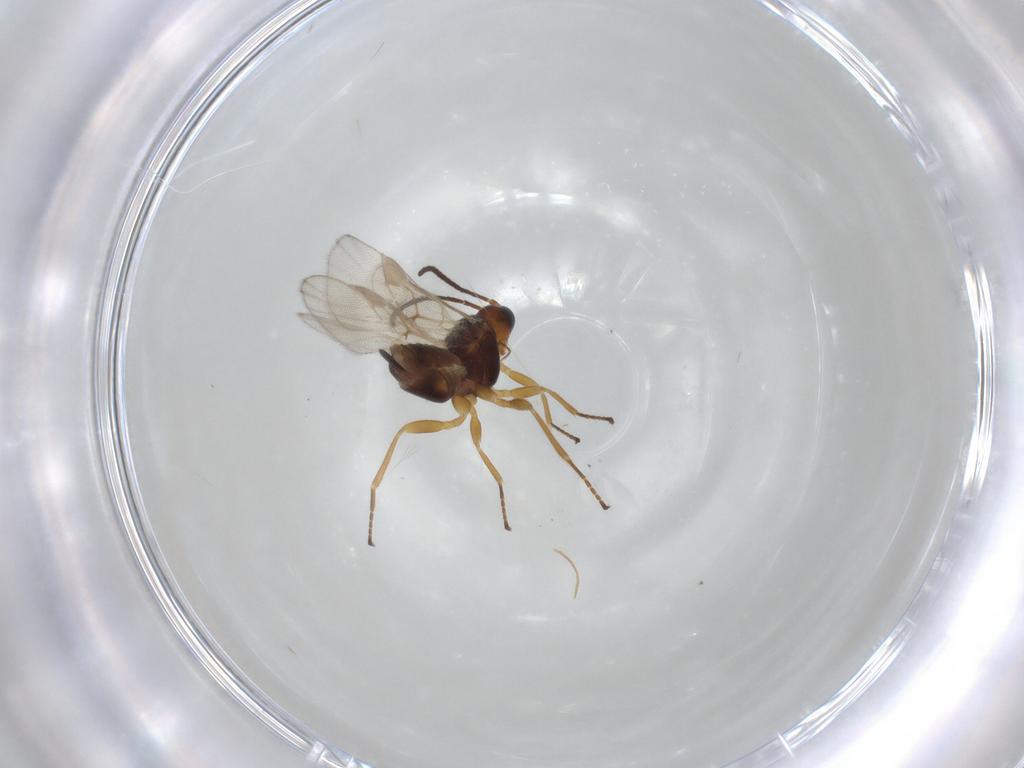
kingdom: Animalia
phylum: Arthropoda
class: Insecta
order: Hymenoptera
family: Braconidae
